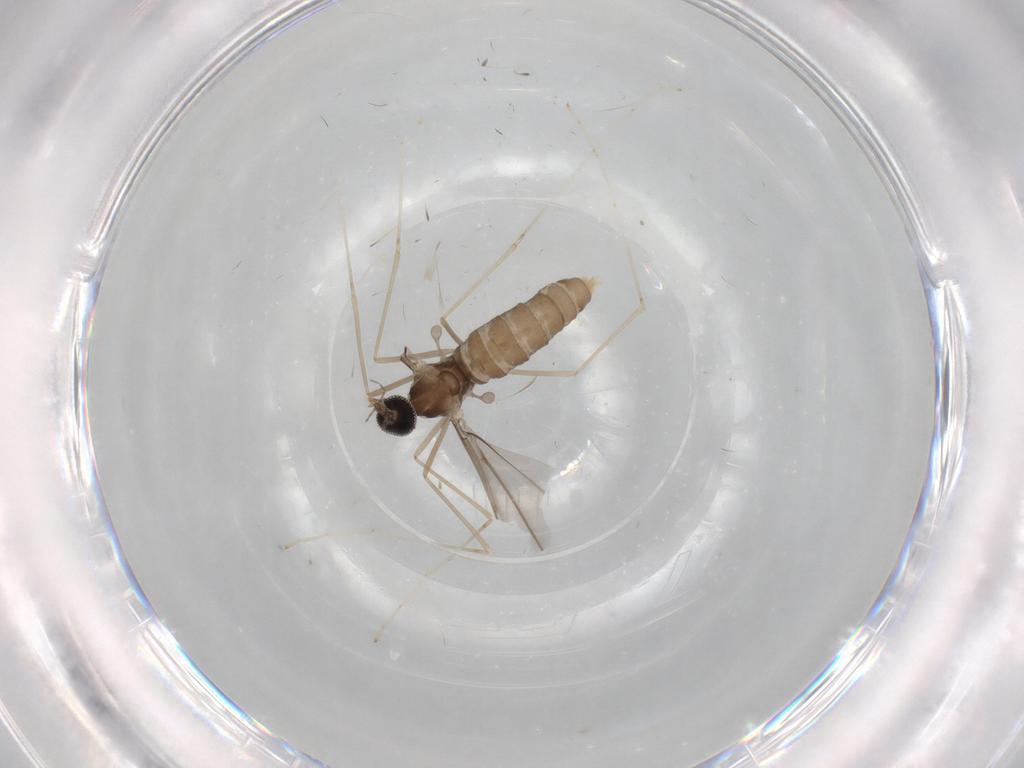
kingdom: Animalia
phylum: Arthropoda
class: Insecta
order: Diptera
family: Cecidomyiidae
